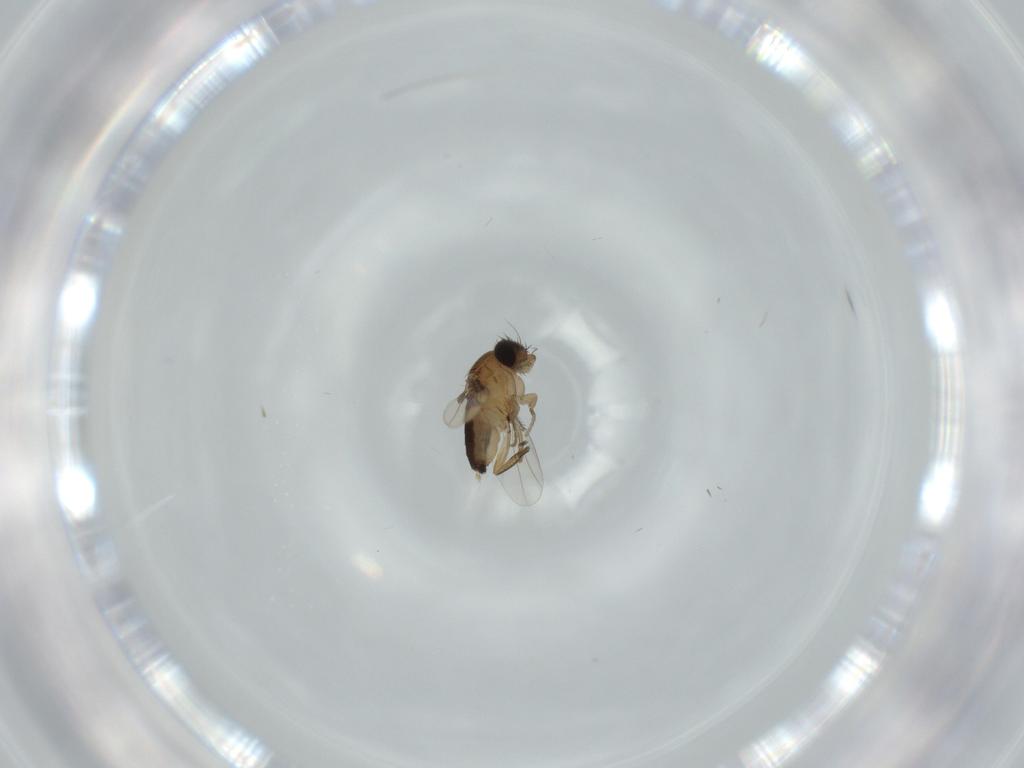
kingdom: Animalia
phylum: Arthropoda
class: Insecta
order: Diptera
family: Phoridae
